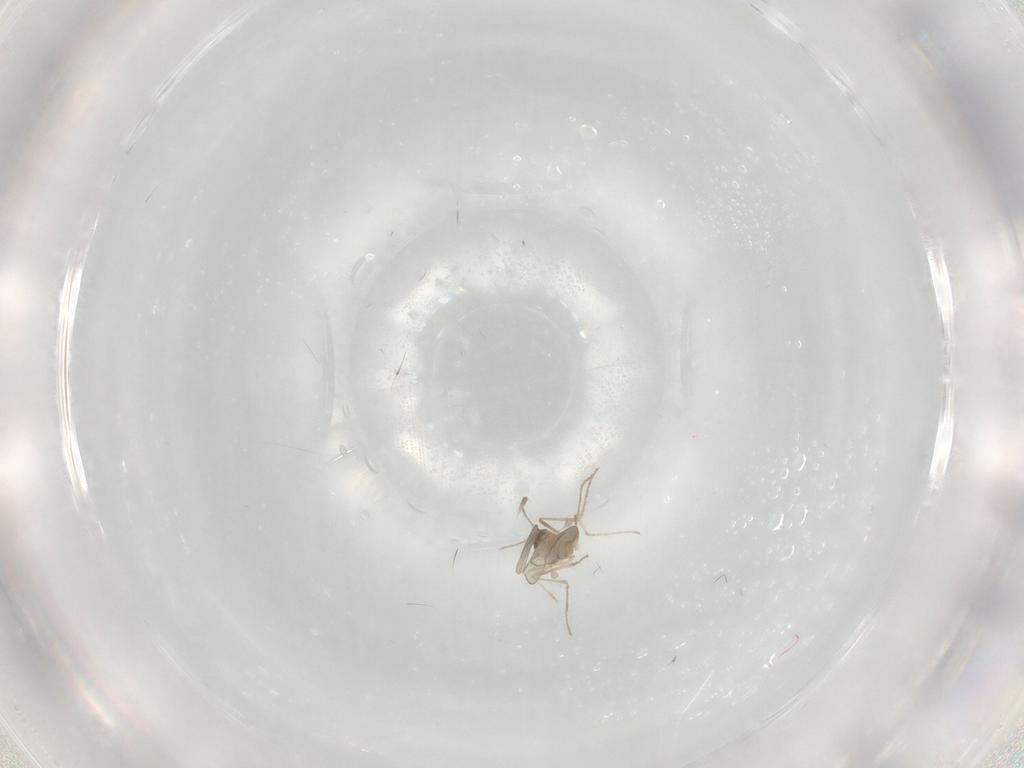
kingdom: Animalia
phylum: Arthropoda
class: Insecta
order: Diptera
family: Cecidomyiidae
